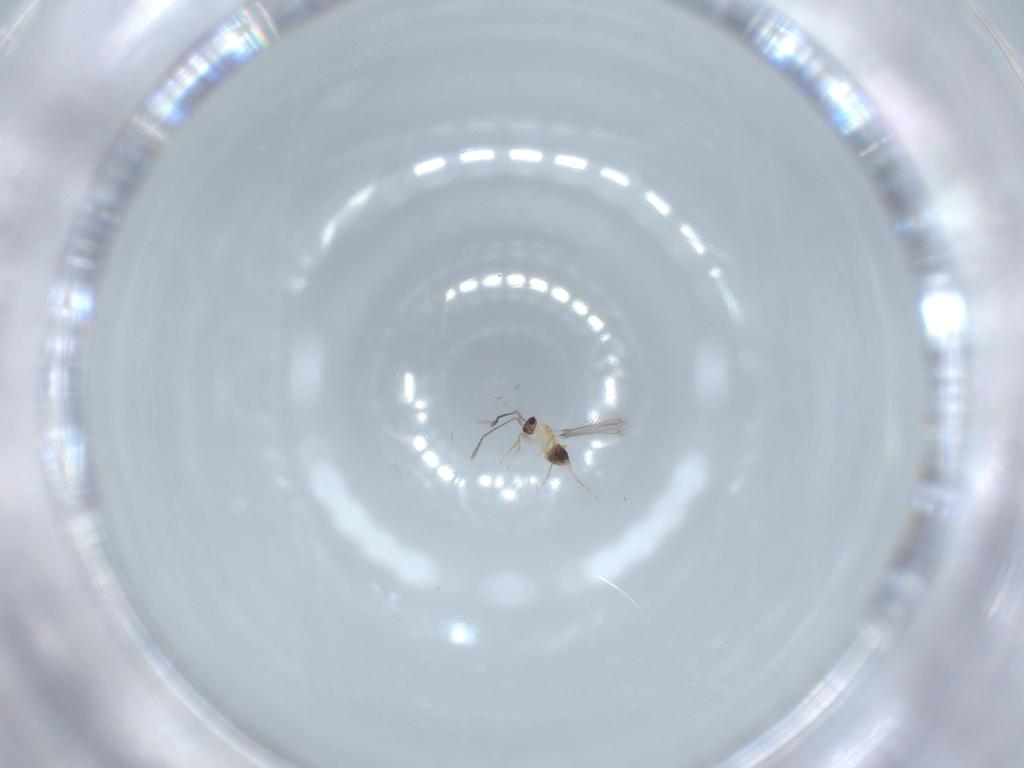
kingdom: Animalia
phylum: Arthropoda
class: Insecta
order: Hymenoptera
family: Mymaridae
